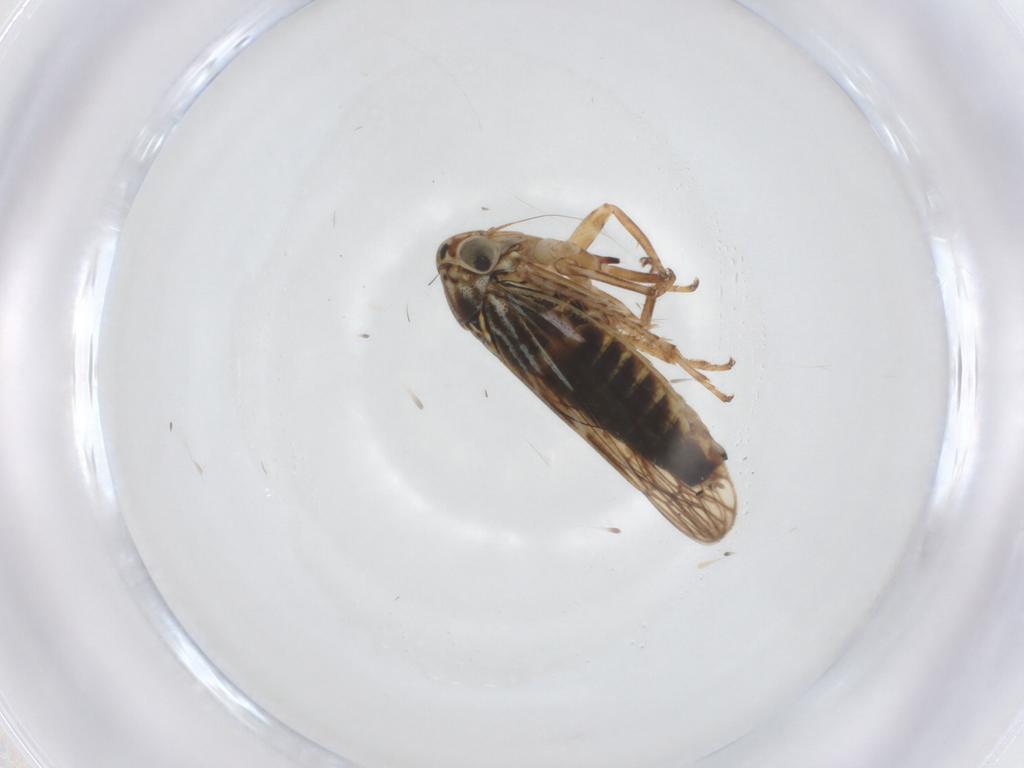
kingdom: Animalia
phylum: Arthropoda
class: Insecta
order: Hemiptera
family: Cicadellidae
